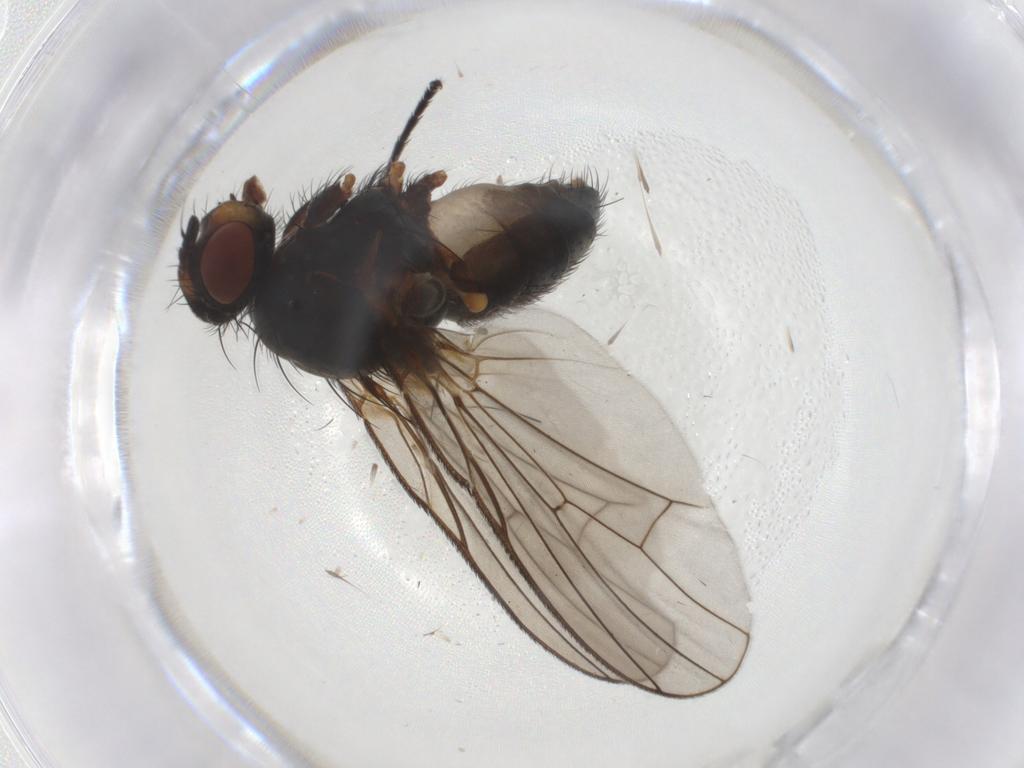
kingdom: Animalia
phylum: Arthropoda
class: Insecta
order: Diptera
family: Anthomyiidae
